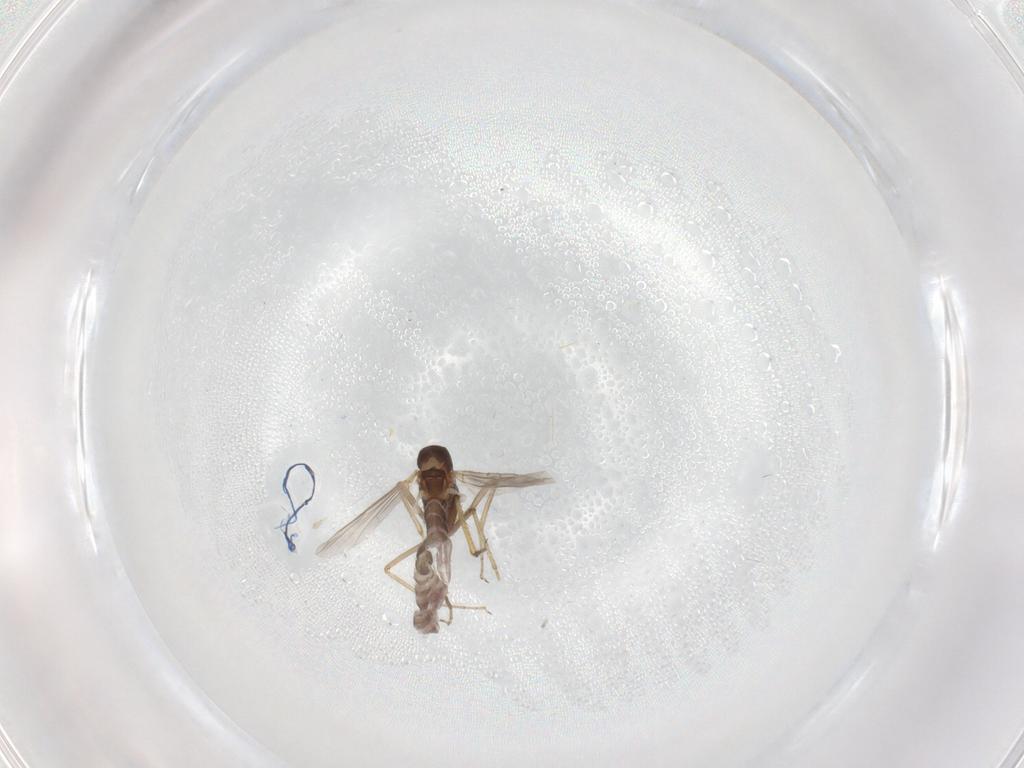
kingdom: Animalia
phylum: Arthropoda
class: Insecta
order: Diptera
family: Ceratopogonidae
